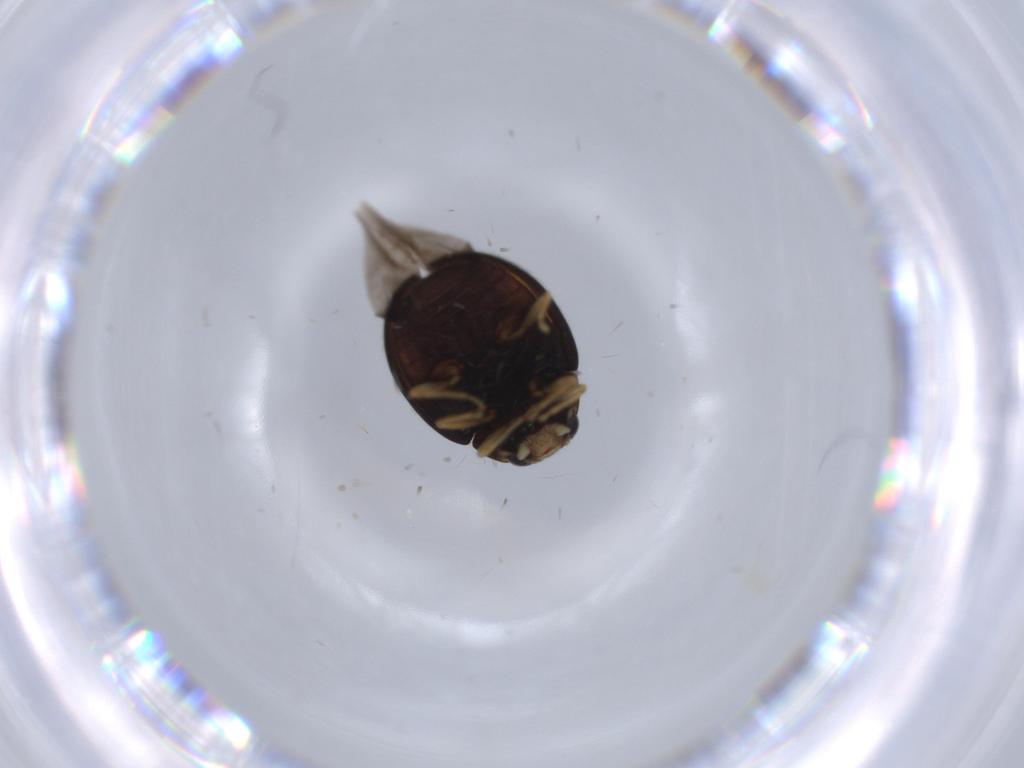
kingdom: Animalia
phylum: Arthropoda
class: Insecta
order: Coleoptera
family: Coccinellidae
